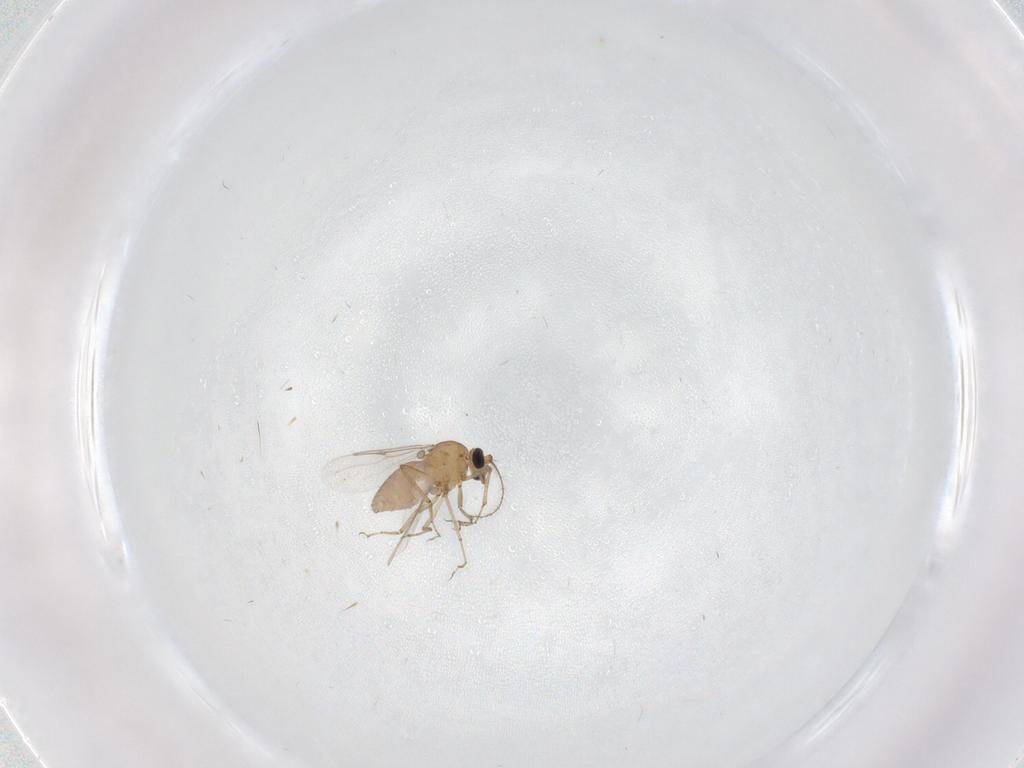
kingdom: Animalia
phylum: Arthropoda
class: Insecta
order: Diptera
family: Ceratopogonidae
